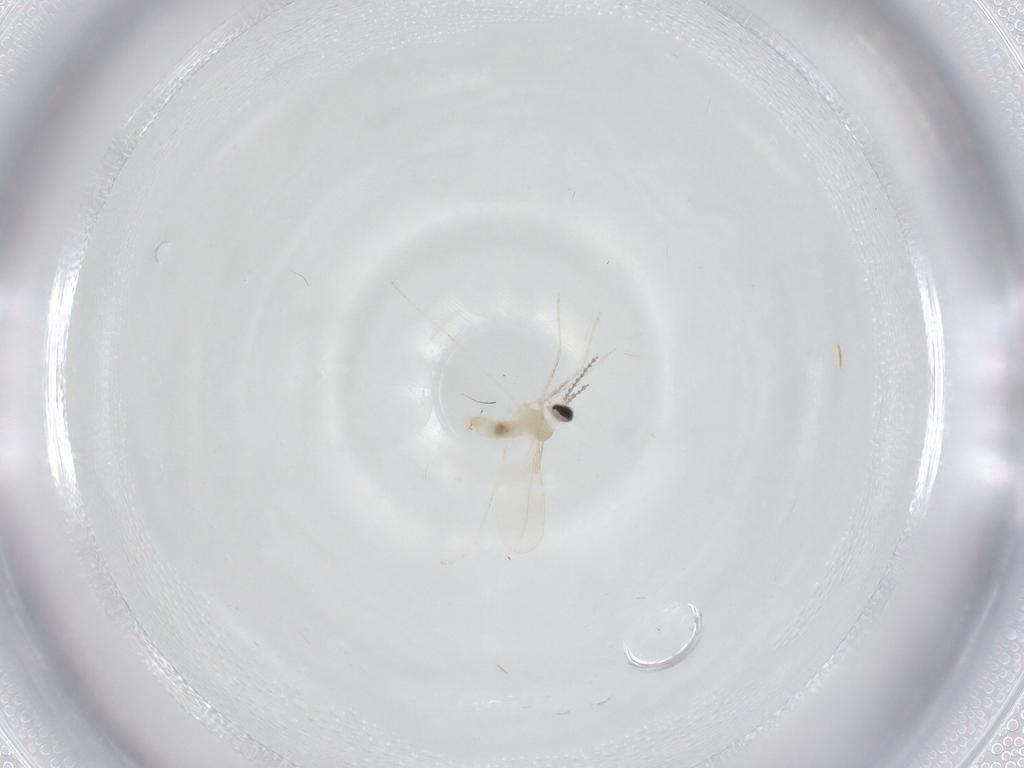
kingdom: Animalia
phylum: Arthropoda
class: Insecta
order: Diptera
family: Cecidomyiidae
